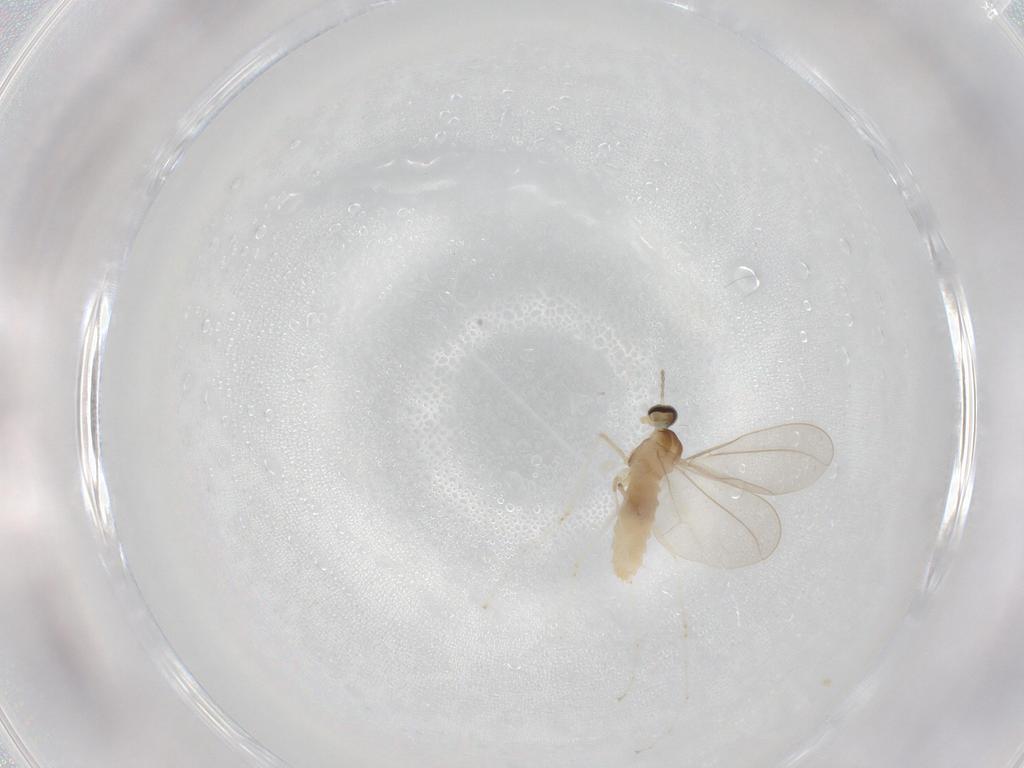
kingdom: Animalia
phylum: Arthropoda
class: Insecta
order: Diptera
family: Cecidomyiidae
